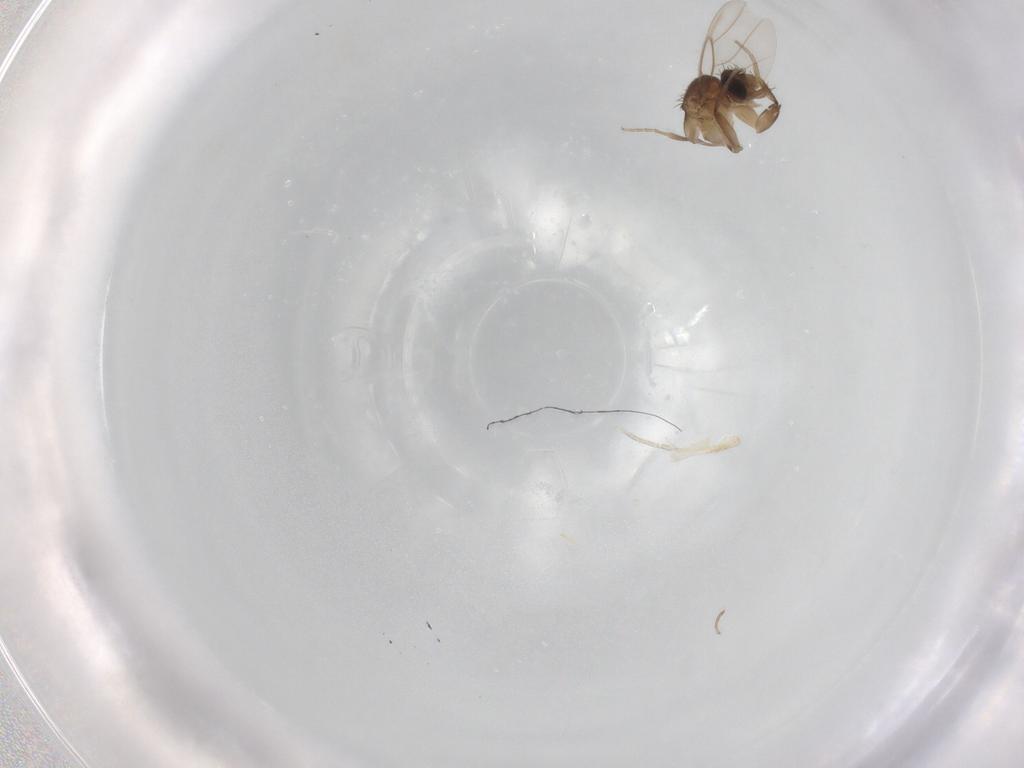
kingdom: Animalia
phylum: Arthropoda
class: Insecta
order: Diptera
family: Phoridae
